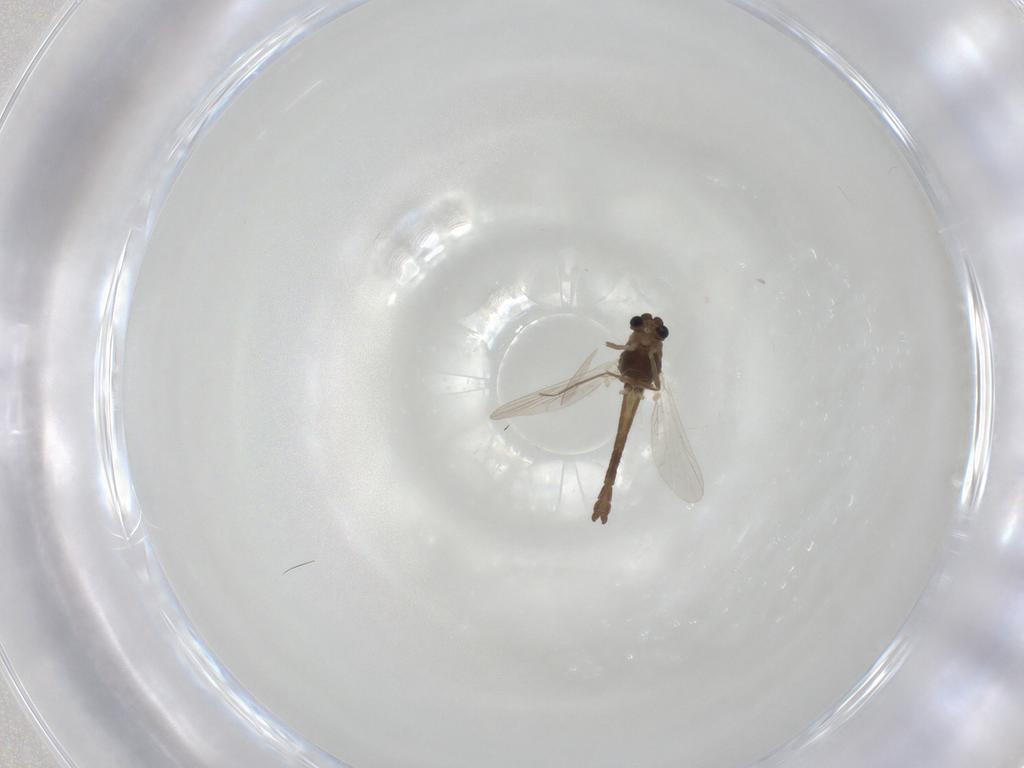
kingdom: Animalia
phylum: Arthropoda
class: Insecta
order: Diptera
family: Chironomidae
